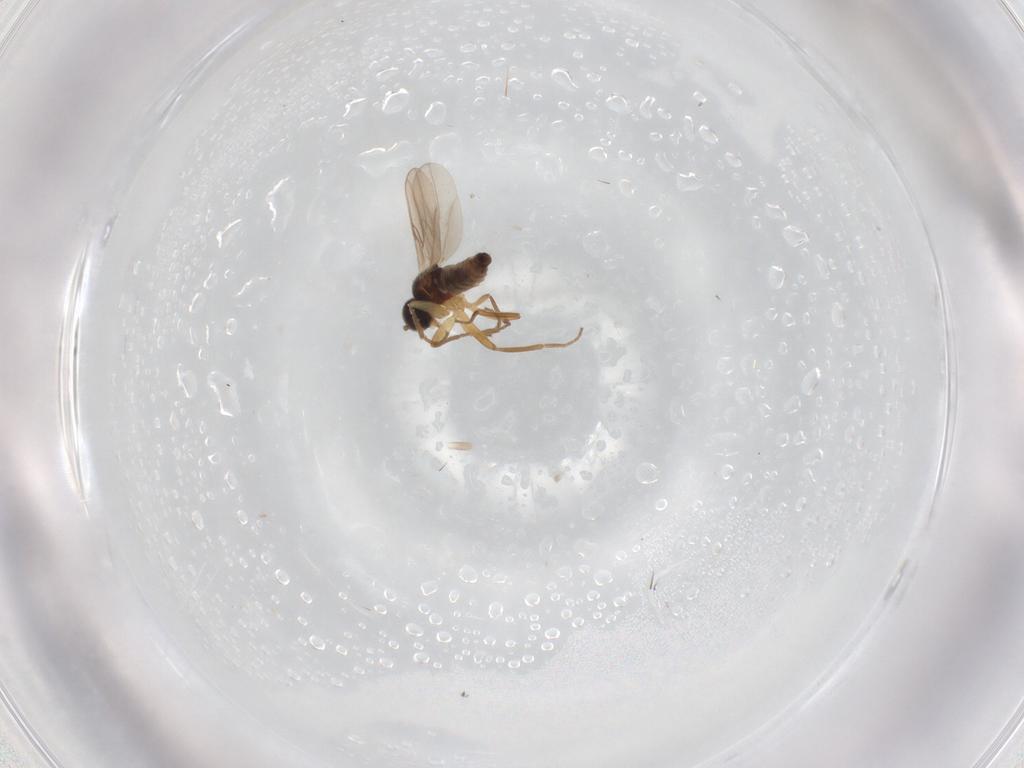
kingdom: Animalia
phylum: Arthropoda
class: Insecta
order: Diptera
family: Hybotidae
